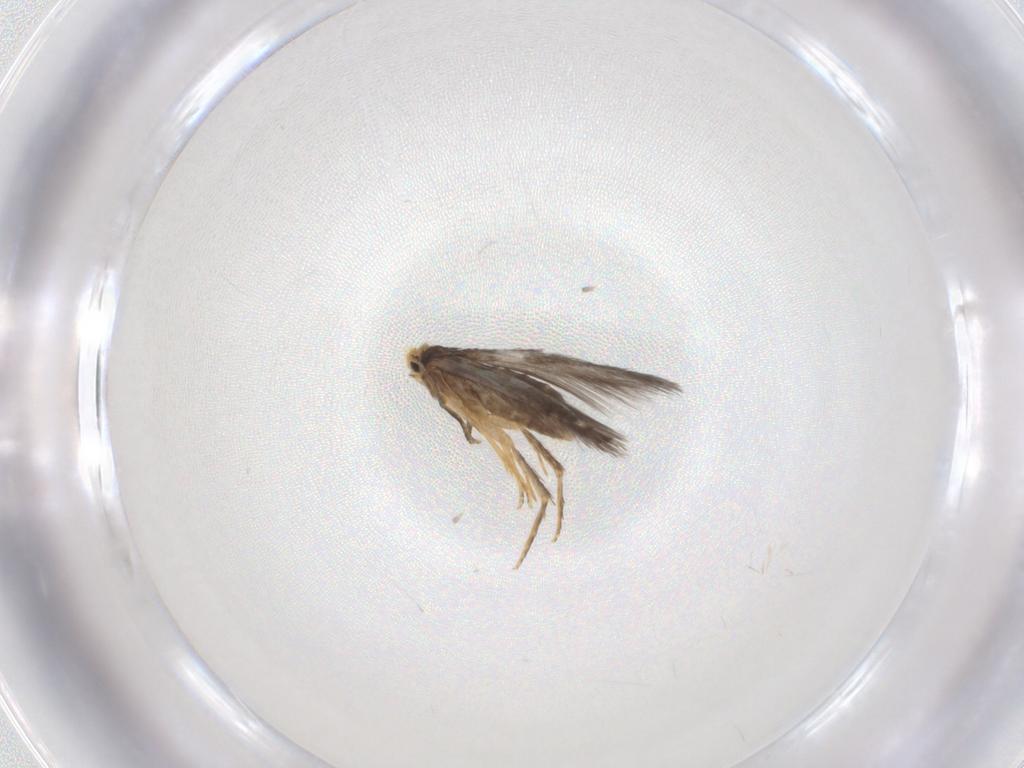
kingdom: Animalia
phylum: Arthropoda
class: Insecta
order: Lepidoptera
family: Nepticulidae
